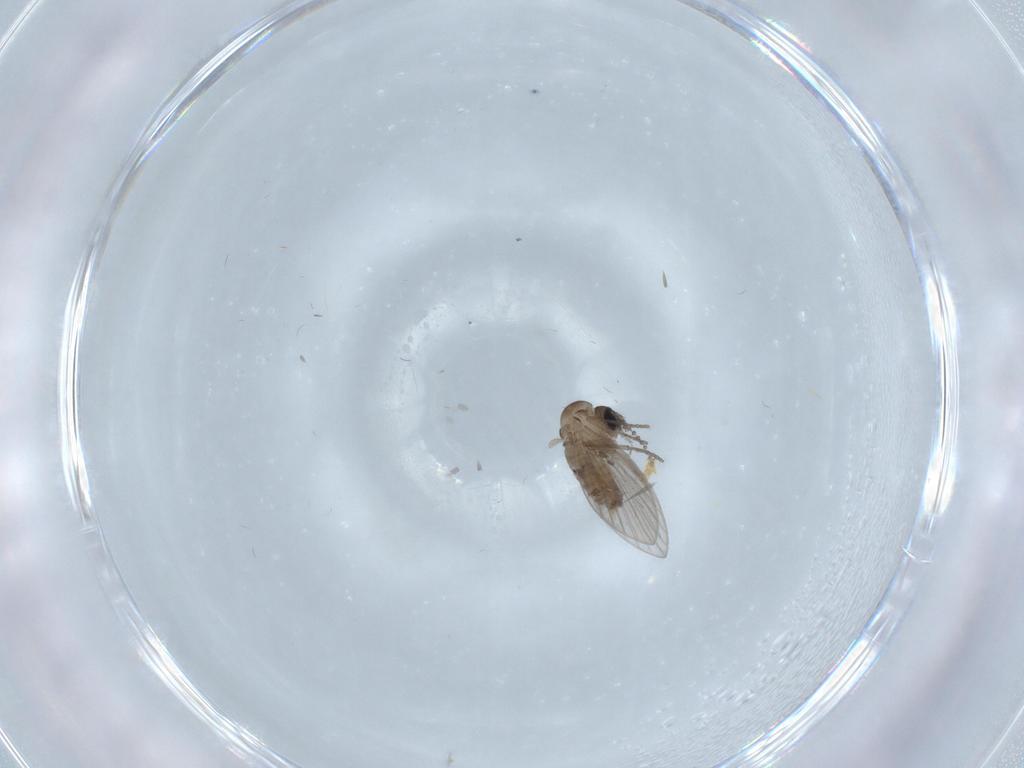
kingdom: Animalia
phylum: Arthropoda
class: Insecta
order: Diptera
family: Psychodidae
